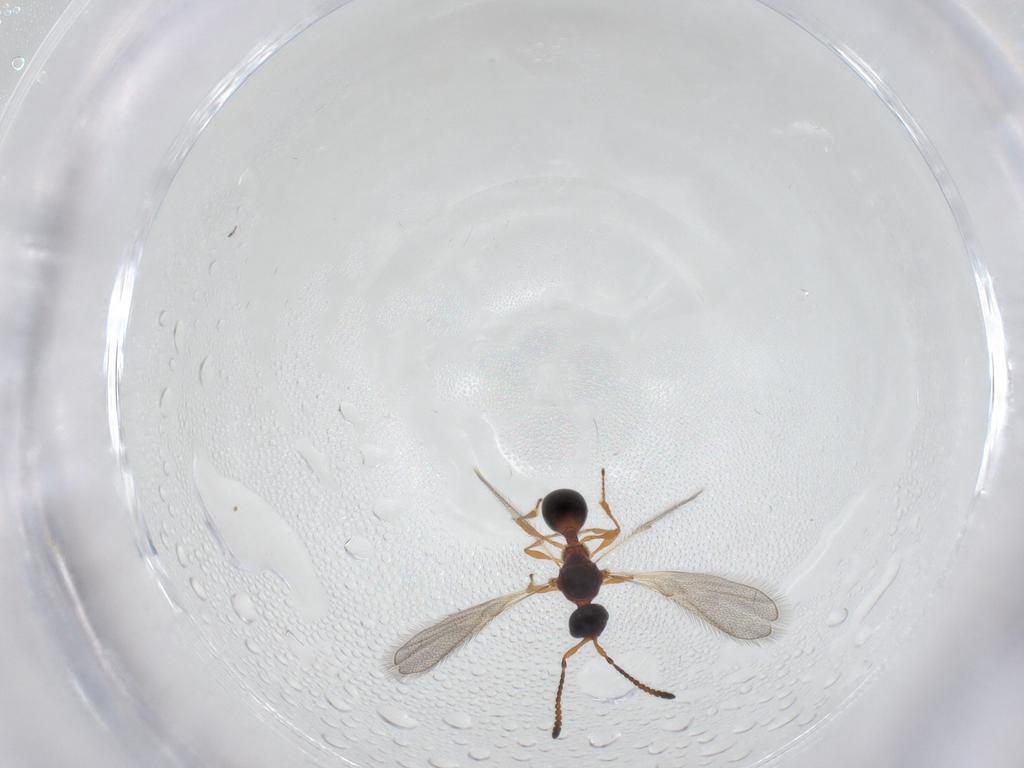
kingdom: Animalia
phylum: Arthropoda
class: Insecta
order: Hymenoptera
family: Diapriidae
